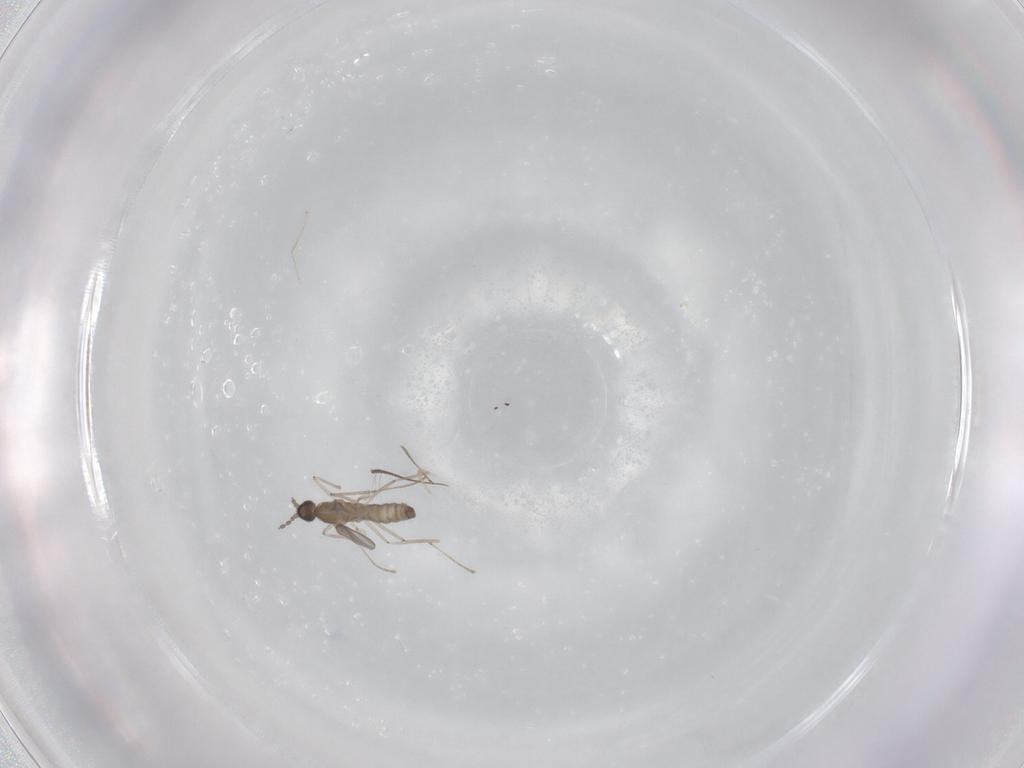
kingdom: Animalia
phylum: Arthropoda
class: Insecta
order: Diptera
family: Cecidomyiidae
